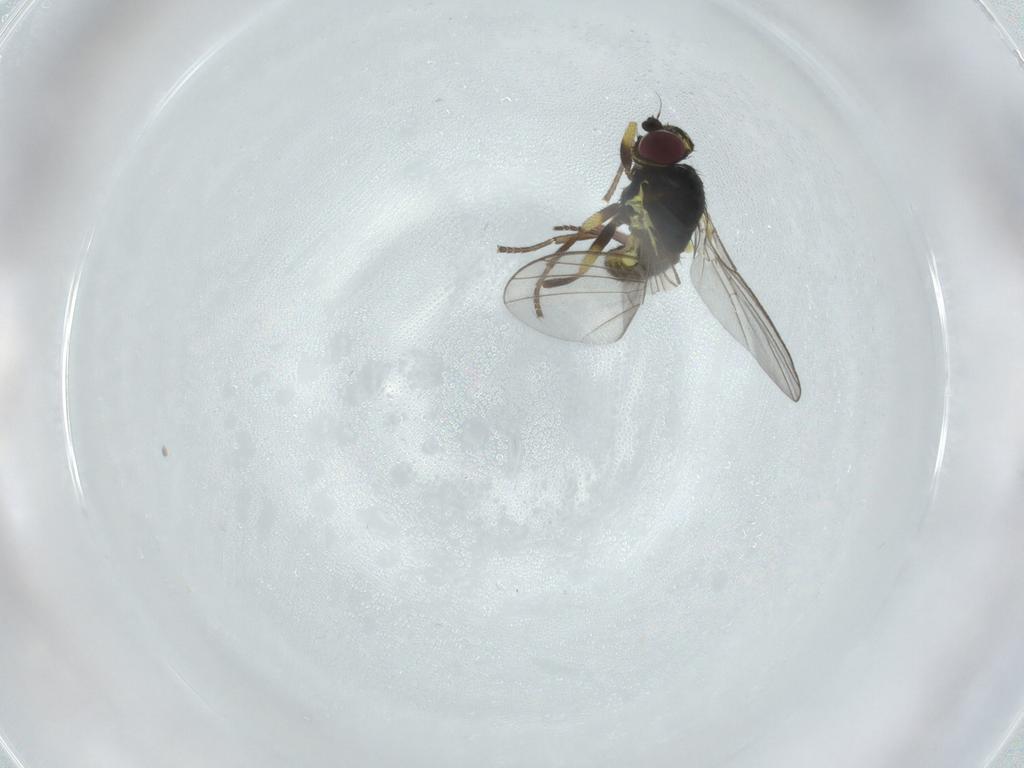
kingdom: Animalia
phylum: Arthropoda
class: Insecta
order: Diptera
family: Agromyzidae
